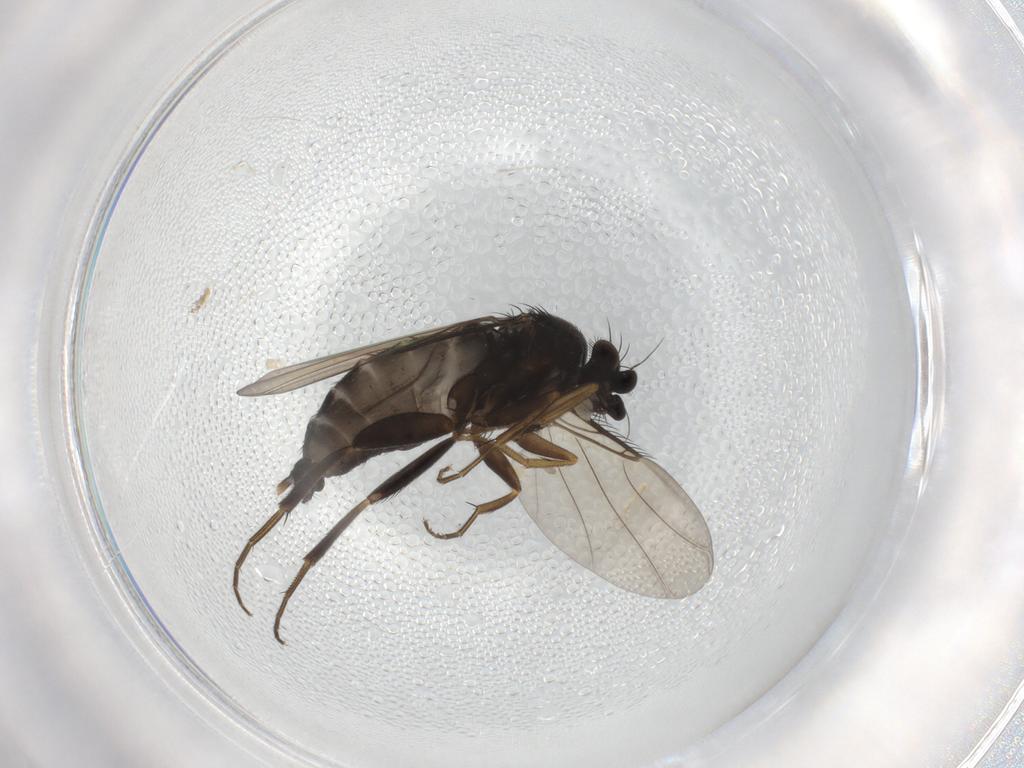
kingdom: Animalia
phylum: Arthropoda
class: Insecta
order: Diptera
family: Phoridae
